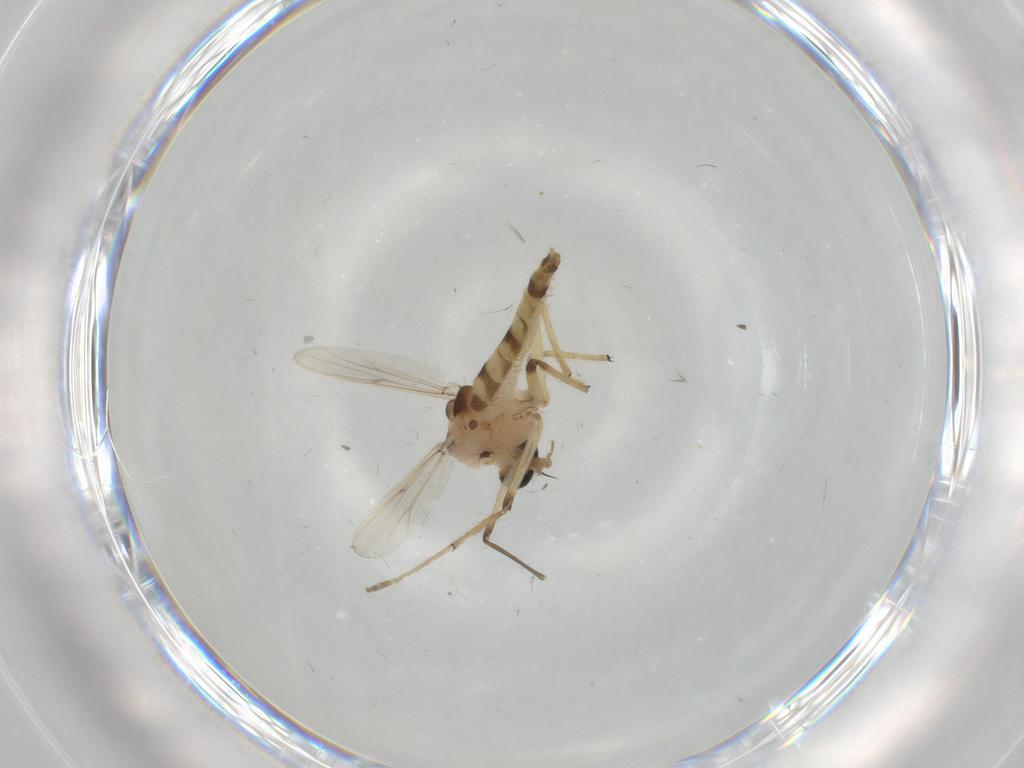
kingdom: Animalia
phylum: Arthropoda
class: Insecta
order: Diptera
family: Chironomidae
